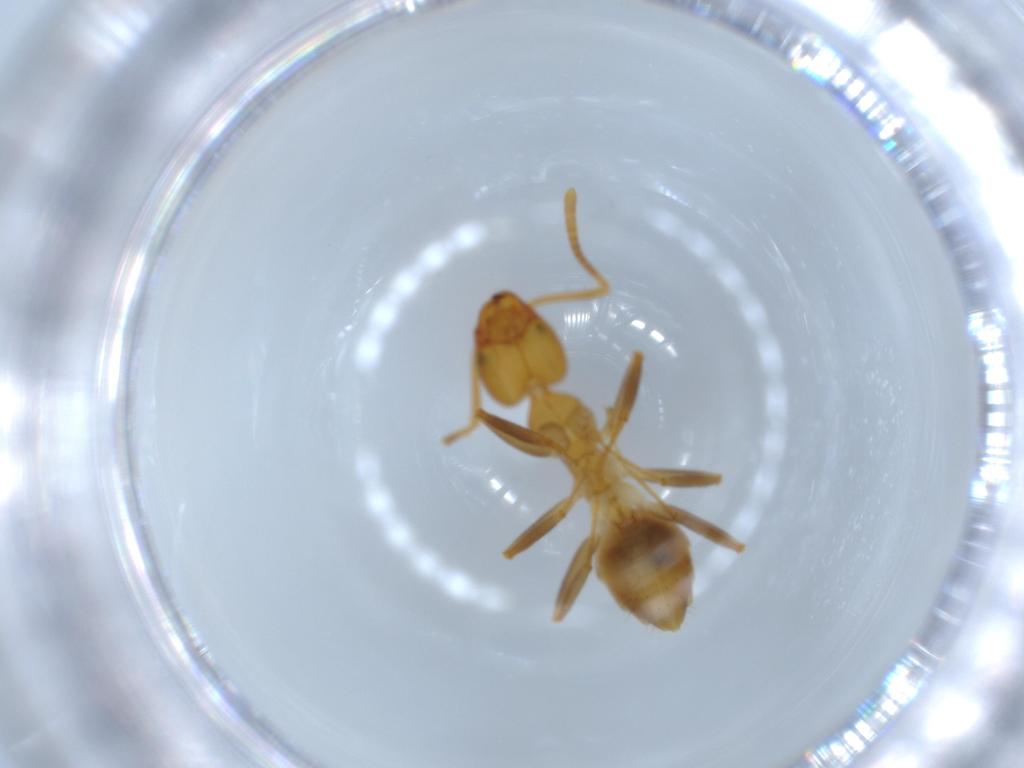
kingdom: Animalia
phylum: Arthropoda
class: Insecta
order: Hymenoptera
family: Formicidae
